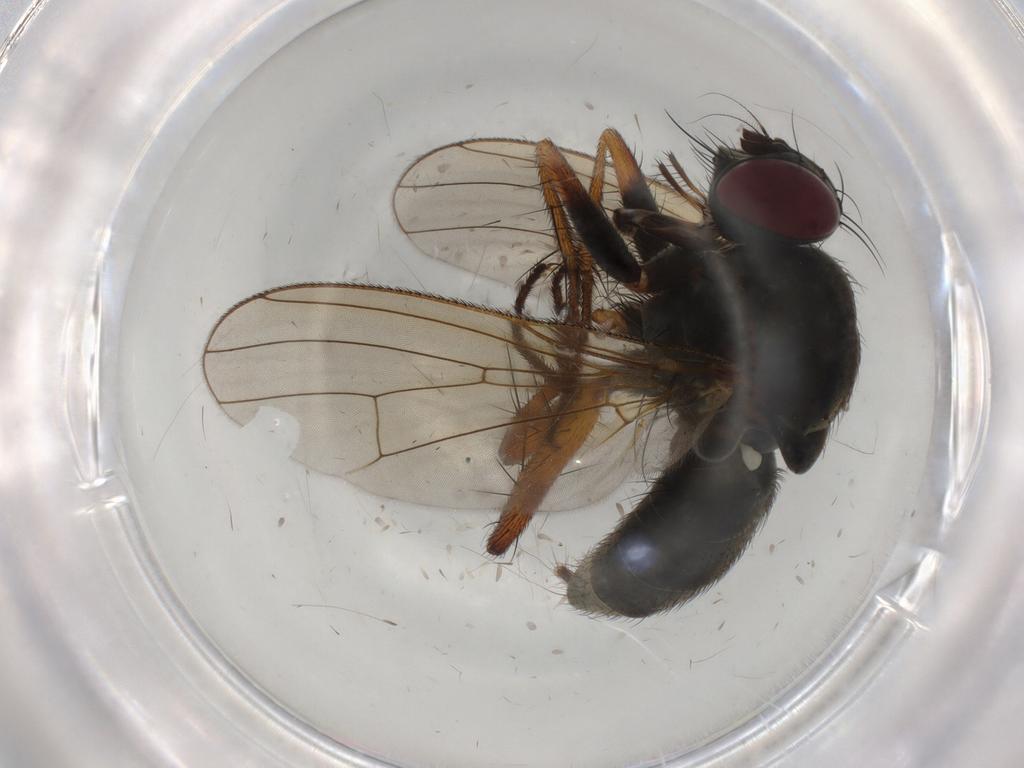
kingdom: Animalia
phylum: Arthropoda
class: Insecta
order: Diptera
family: Muscidae
